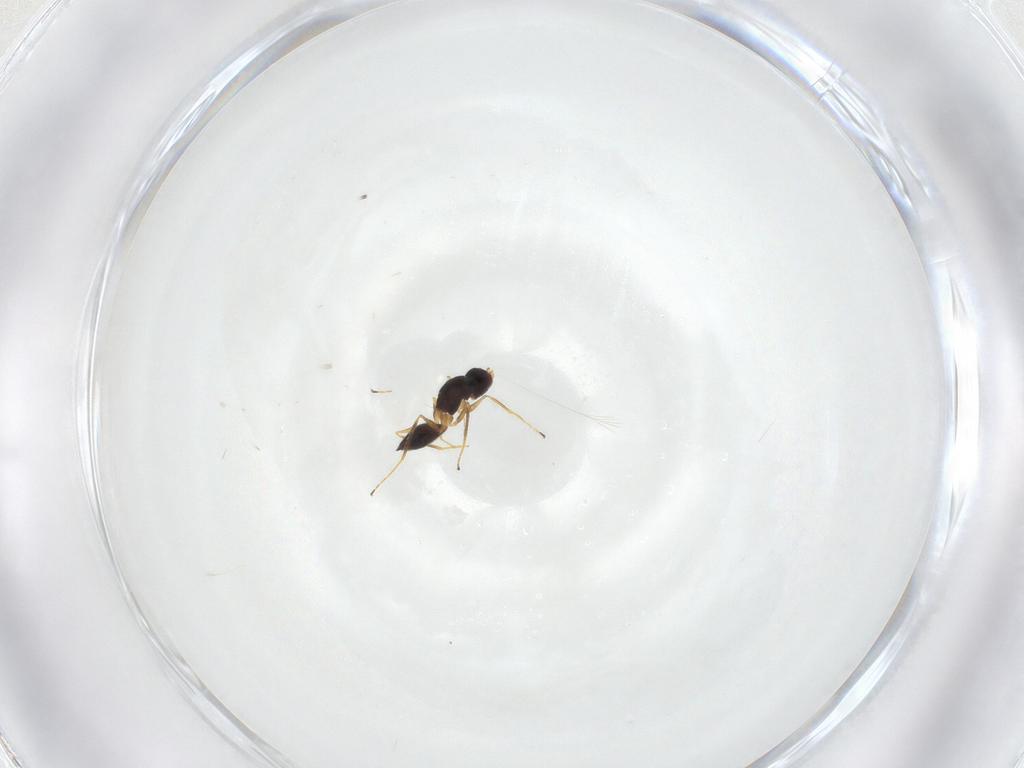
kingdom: Animalia
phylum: Arthropoda
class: Insecta
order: Hymenoptera
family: Mymaridae
